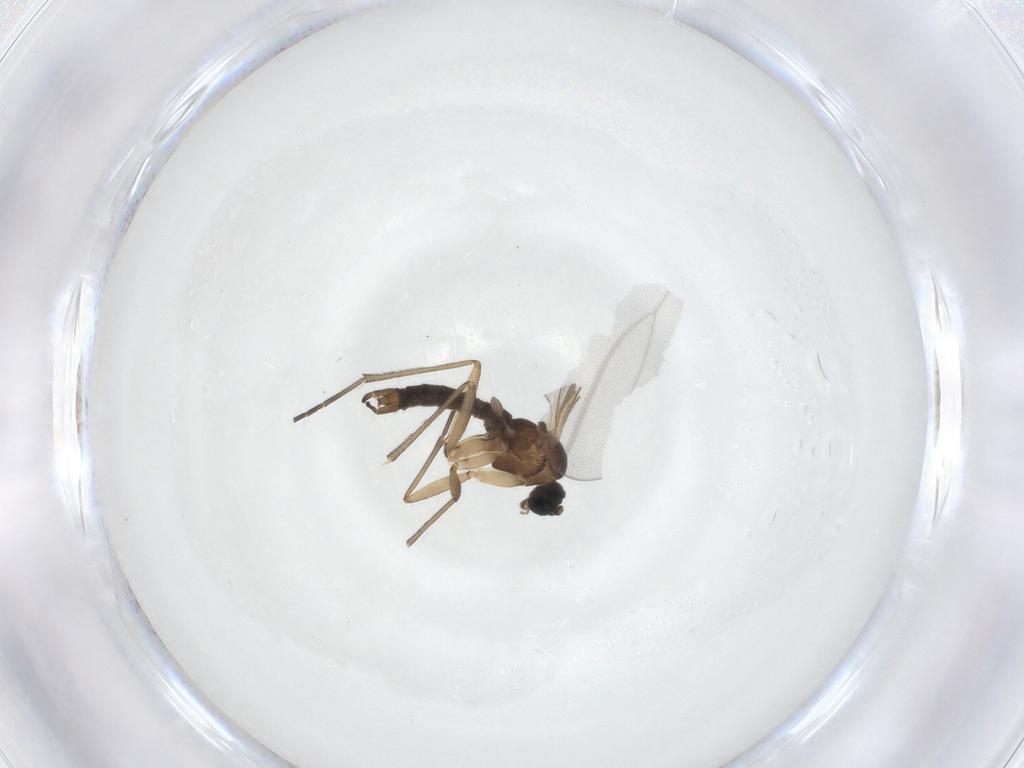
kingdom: Animalia
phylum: Arthropoda
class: Insecta
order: Diptera
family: Sciaridae
